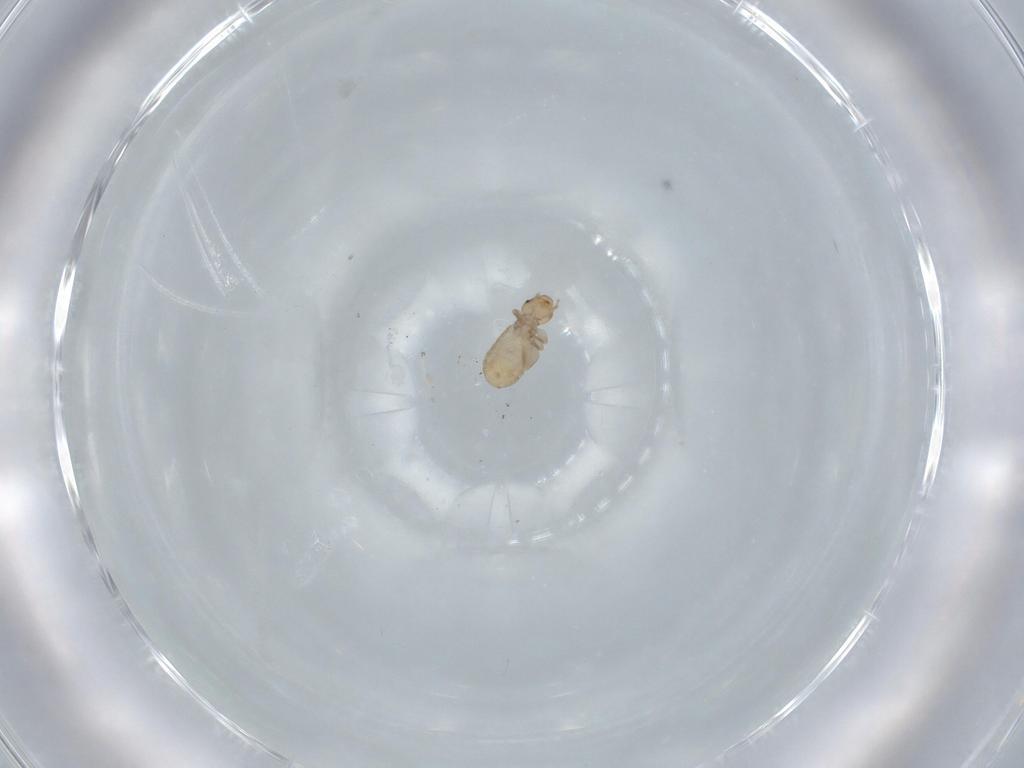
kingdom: Animalia
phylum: Arthropoda
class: Insecta
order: Psocodea
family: Liposcelididae
